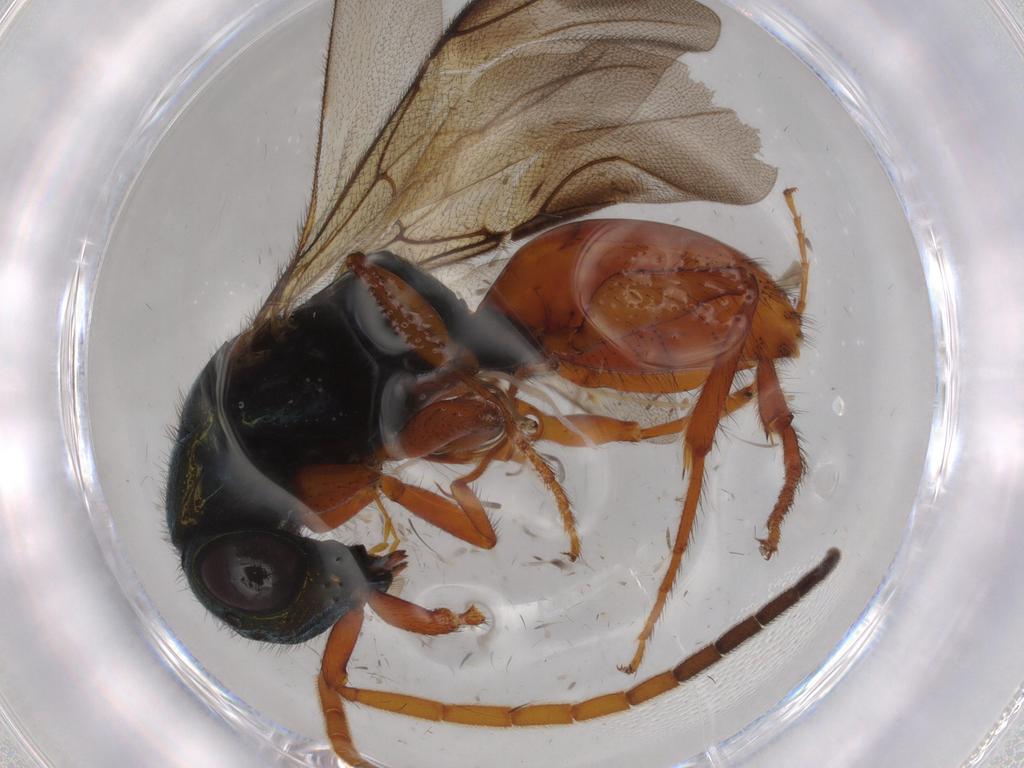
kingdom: Animalia
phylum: Arthropoda
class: Insecta
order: Hymenoptera
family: Chrysididae
